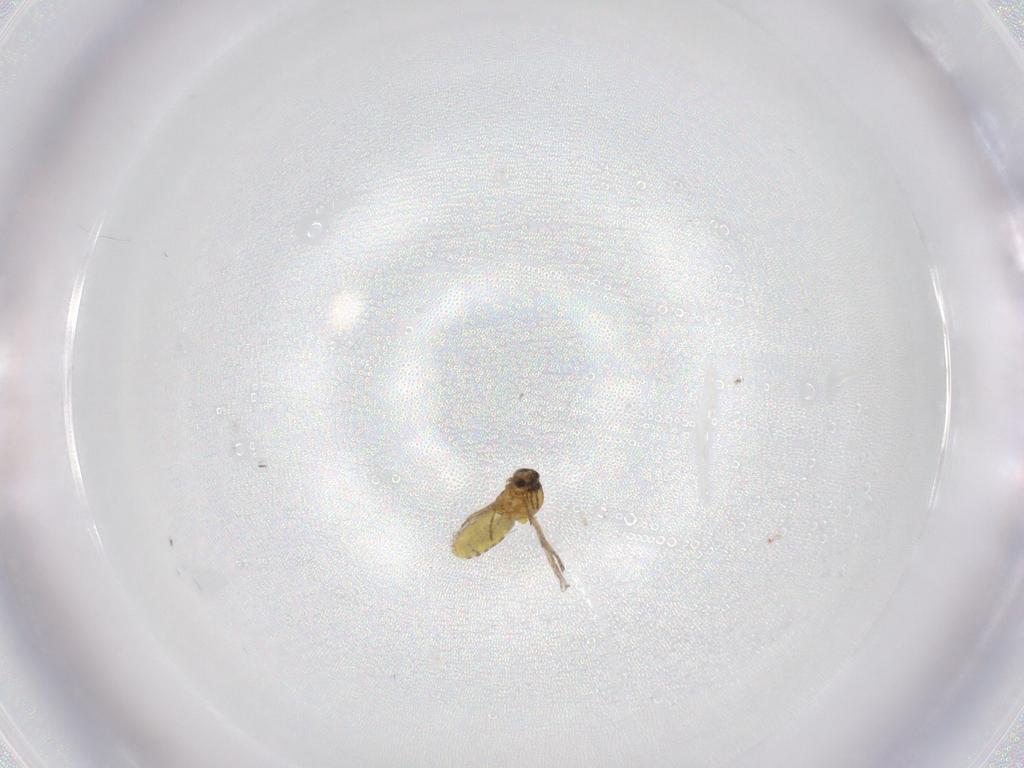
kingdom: Animalia
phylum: Arthropoda
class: Insecta
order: Diptera
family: Ceratopogonidae
